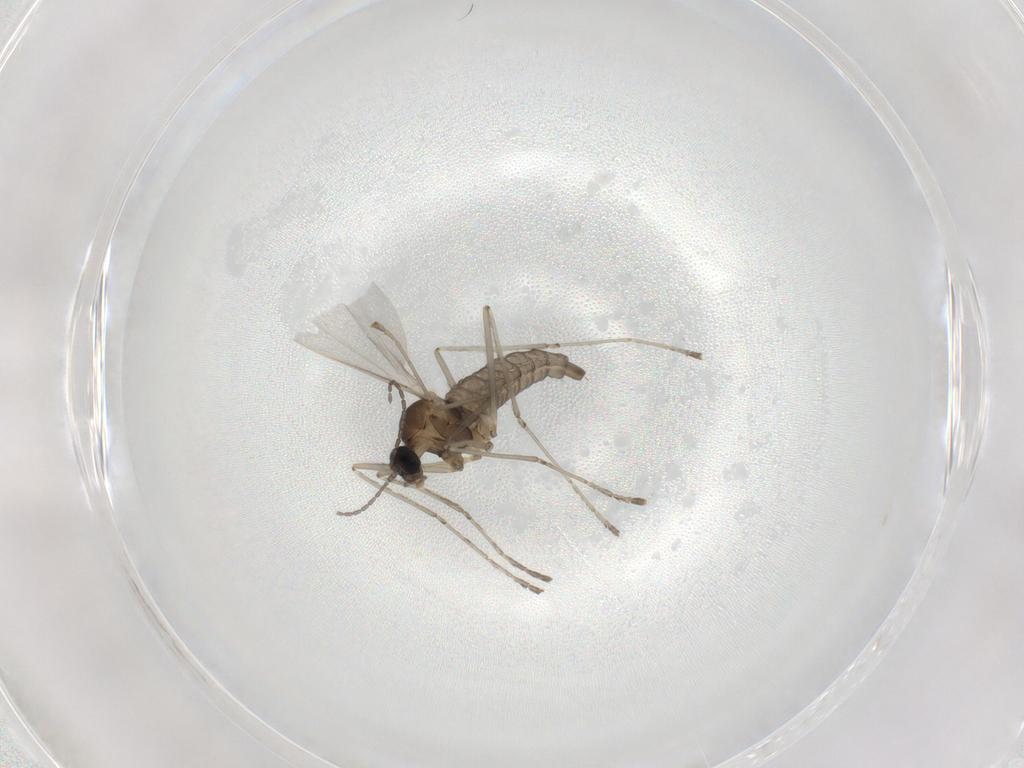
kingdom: Animalia
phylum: Arthropoda
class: Insecta
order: Diptera
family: Cecidomyiidae
